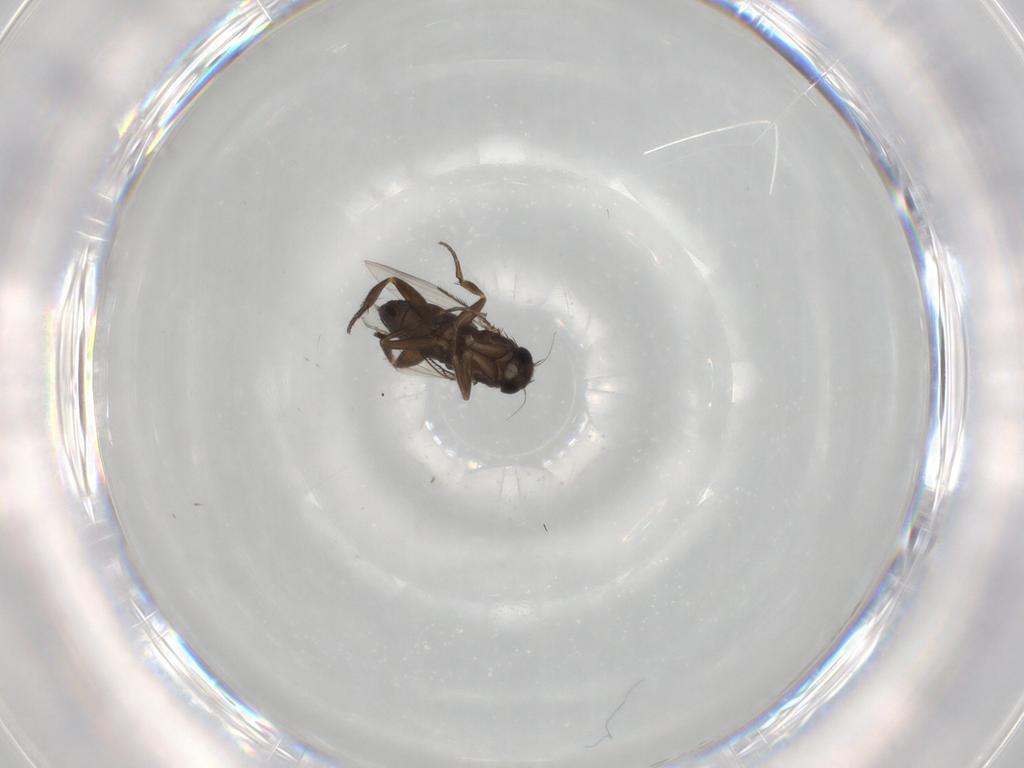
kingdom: Animalia
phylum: Arthropoda
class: Insecta
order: Diptera
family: Phoridae
